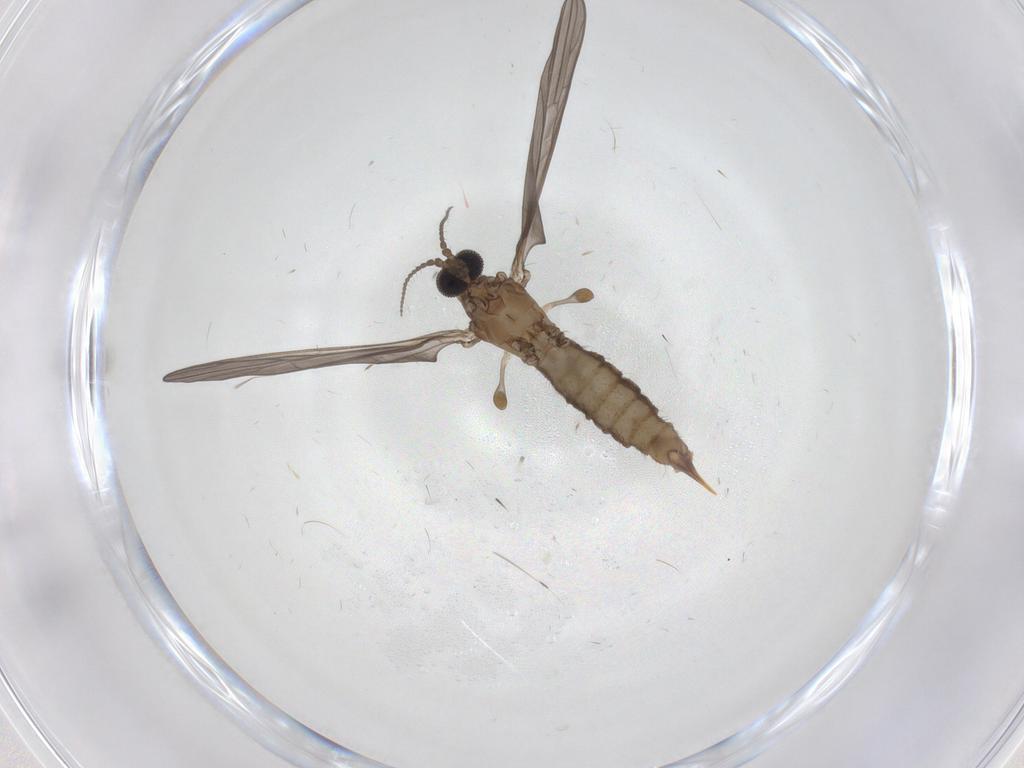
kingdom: Animalia
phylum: Arthropoda
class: Insecta
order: Diptera
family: Limoniidae
